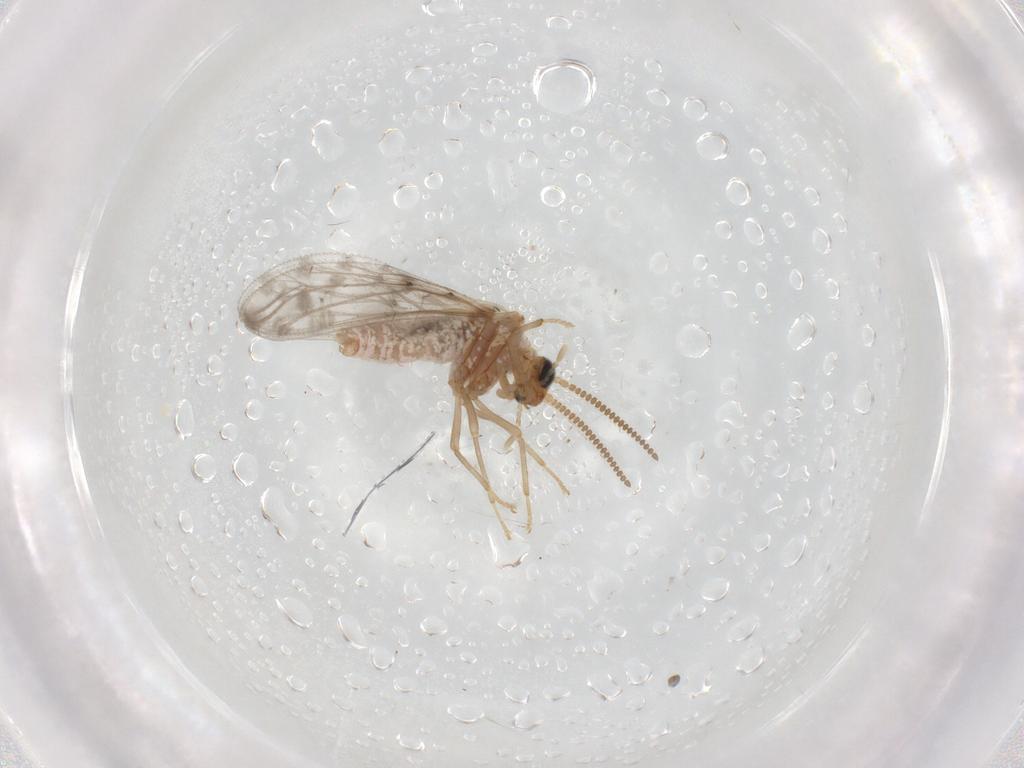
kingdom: Animalia
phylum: Arthropoda
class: Insecta
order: Neuroptera
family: Coniopterygidae
